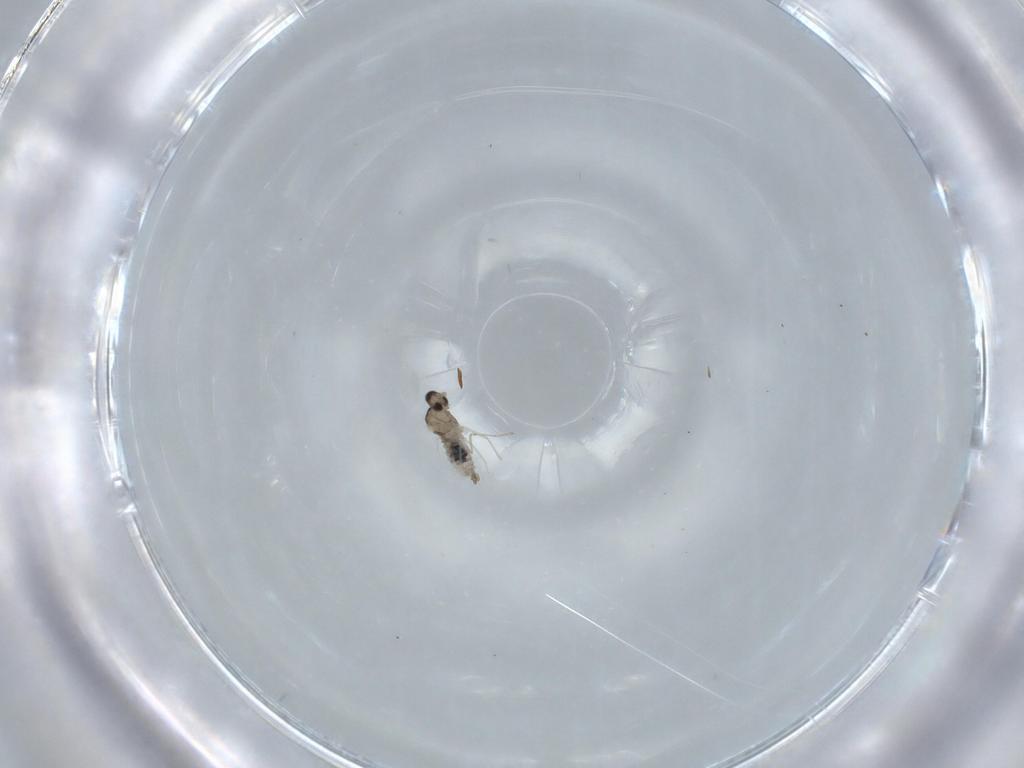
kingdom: Animalia
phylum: Arthropoda
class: Insecta
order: Diptera
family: Cecidomyiidae
